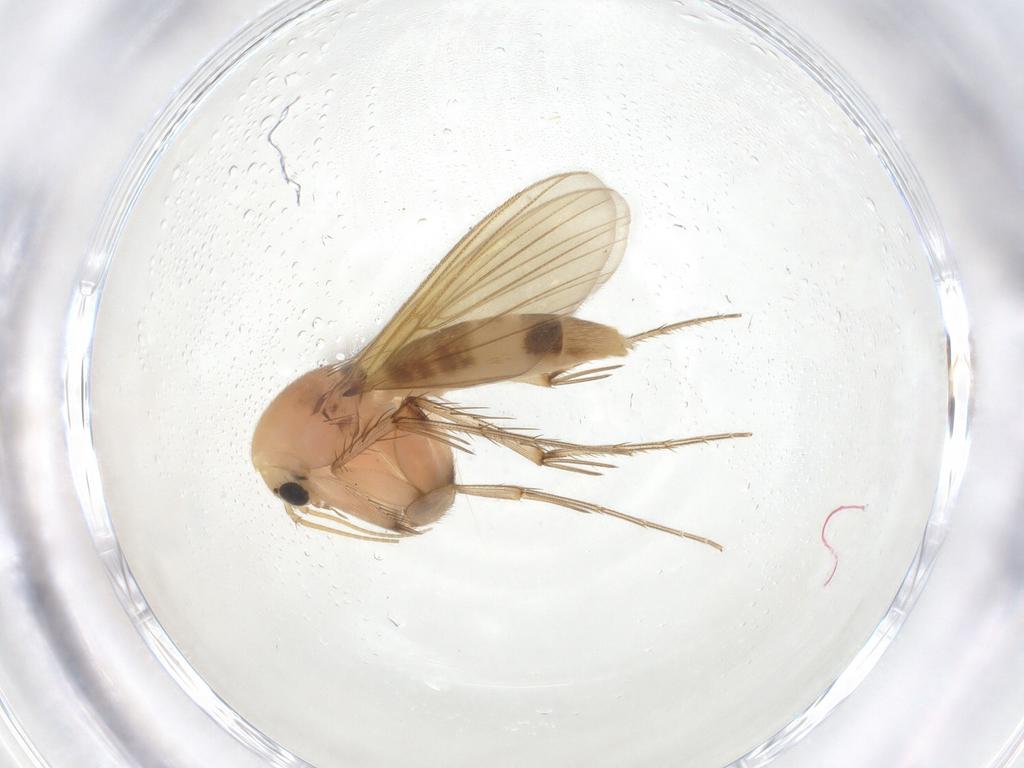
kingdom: Animalia
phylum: Arthropoda
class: Insecta
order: Diptera
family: Mycetophilidae
